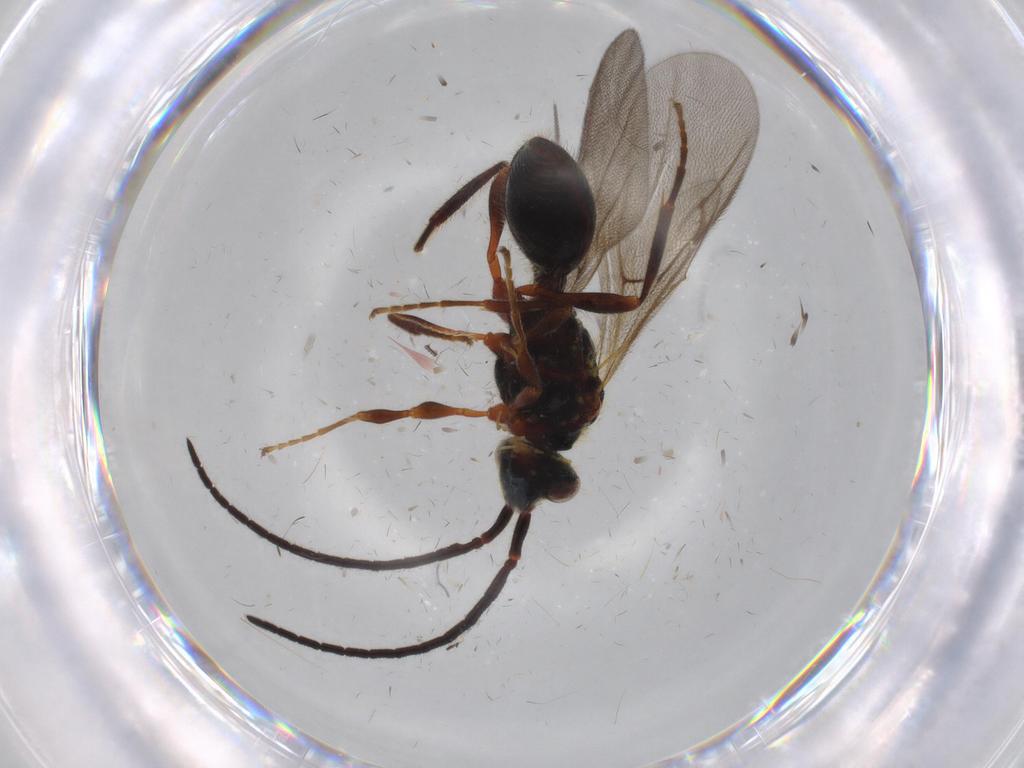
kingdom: Animalia
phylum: Arthropoda
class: Insecta
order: Hymenoptera
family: Diapriidae
